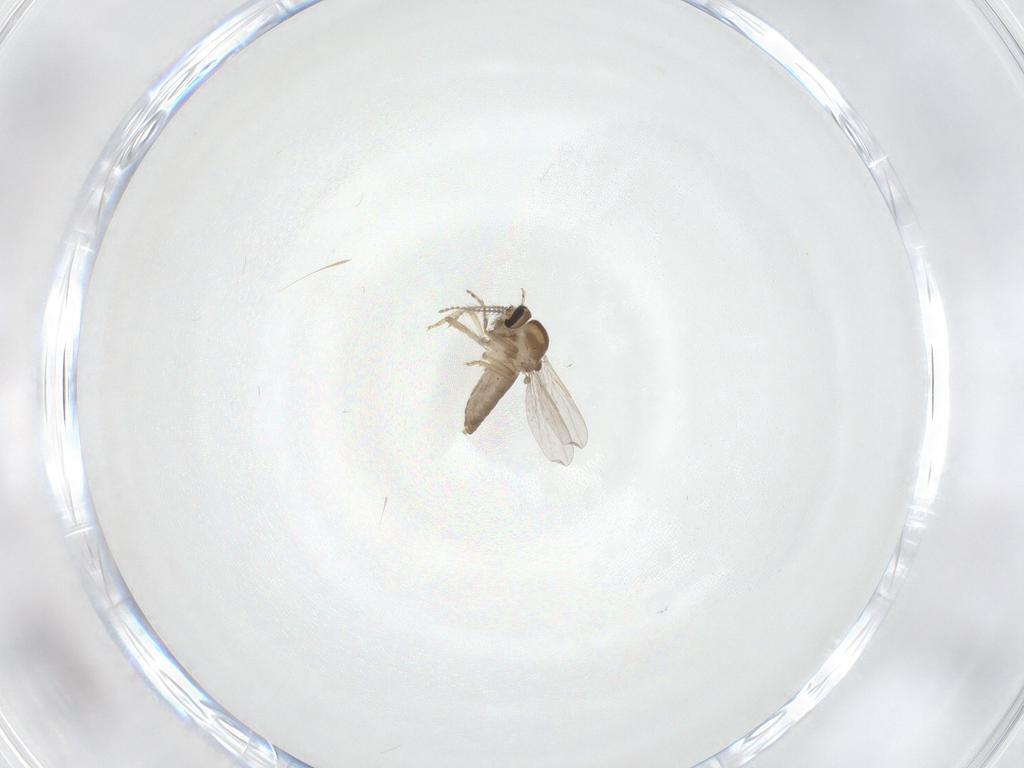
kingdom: Animalia
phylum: Arthropoda
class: Insecta
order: Diptera
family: Ceratopogonidae
